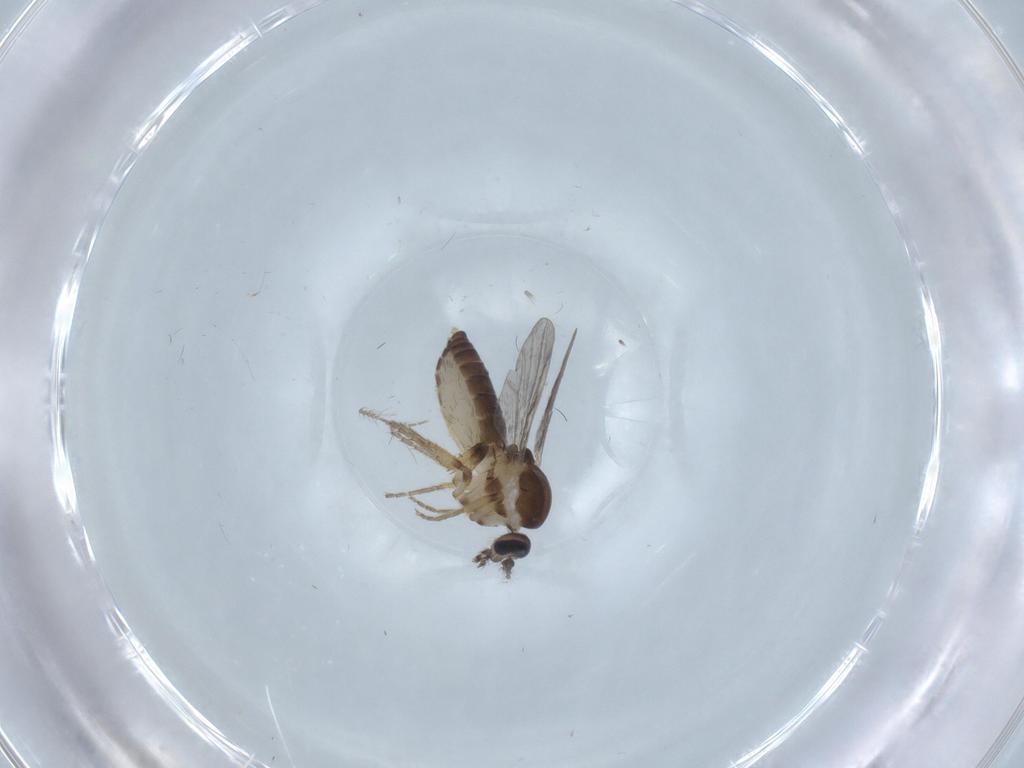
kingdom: Animalia
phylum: Arthropoda
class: Insecta
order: Diptera
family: Ceratopogonidae
